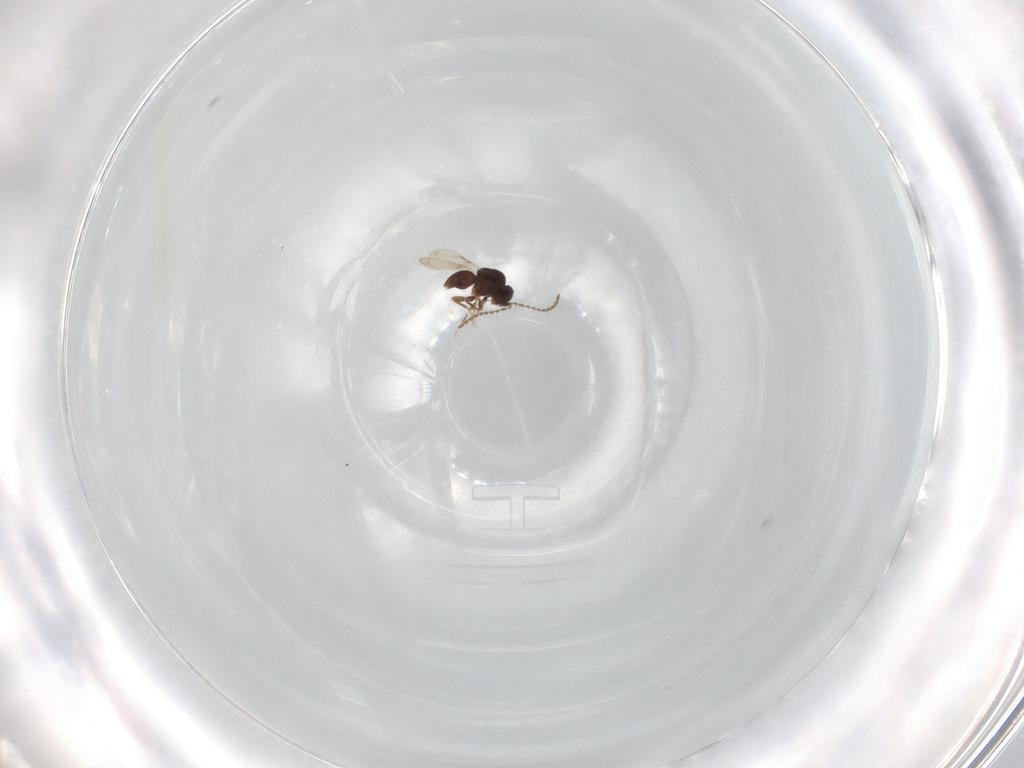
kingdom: Animalia
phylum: Arthropoda
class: Insecta
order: Hymenoptera
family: Ceraphronidae
